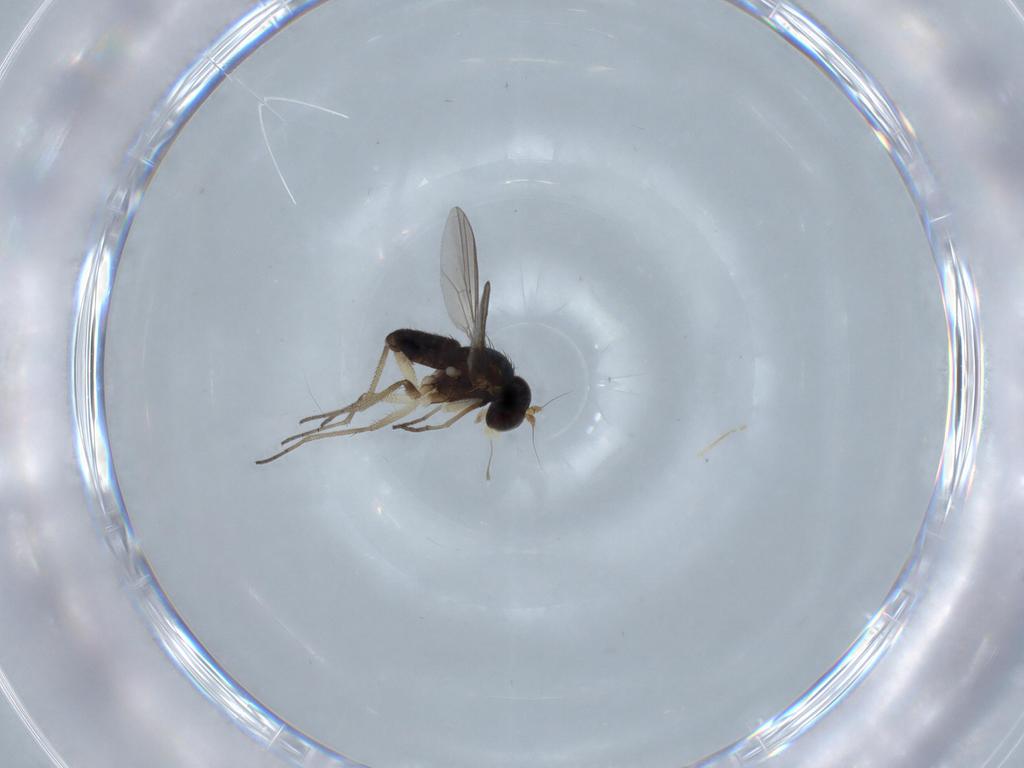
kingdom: Animalia
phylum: Arthropoda
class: Insecta
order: Diptera
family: Dolichopodidae
